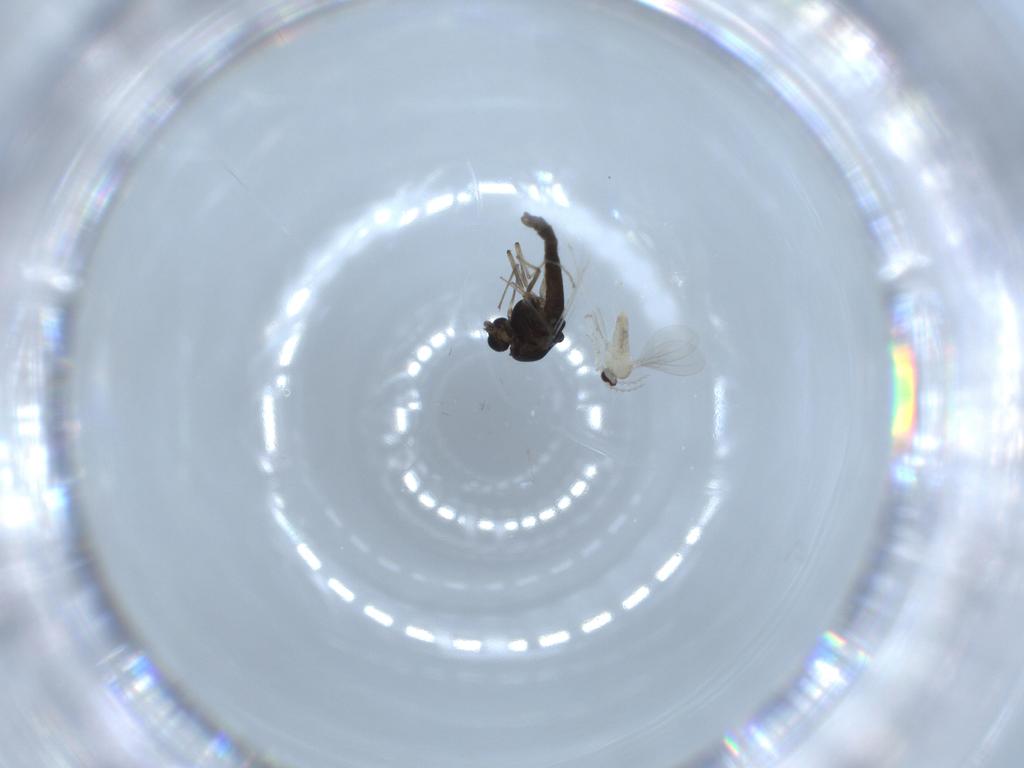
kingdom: Animalia
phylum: Arthropoda
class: Insecta
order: Diptera
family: Chironomidae
